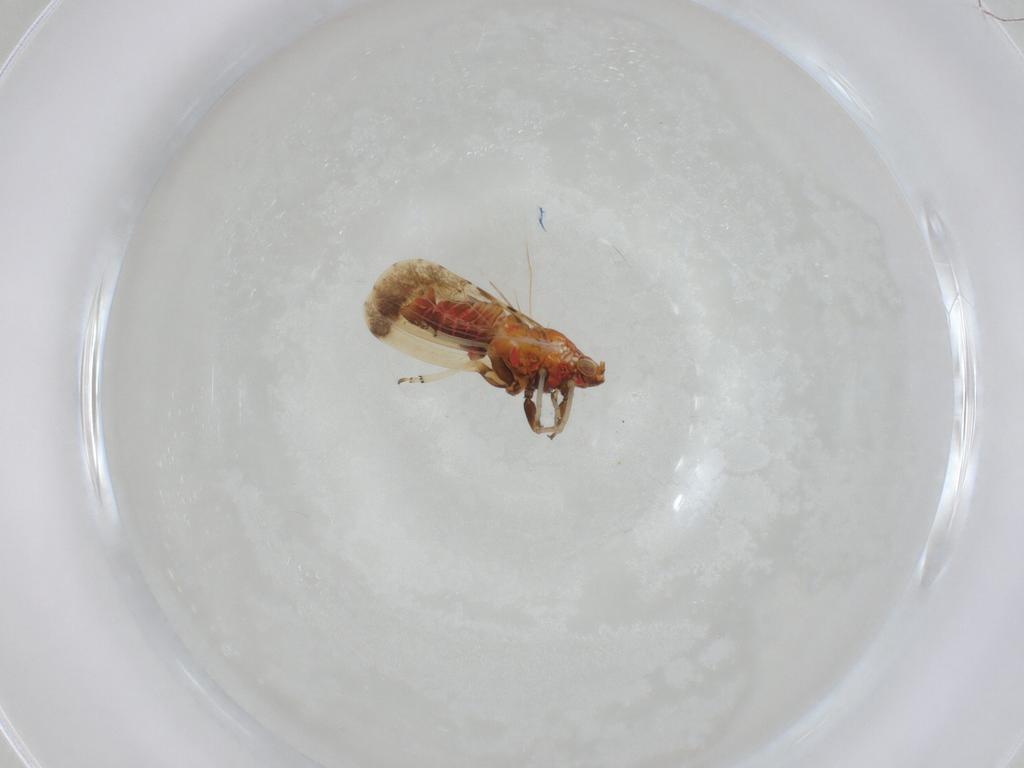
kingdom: Animalia
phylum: Arthropoda
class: Insecta
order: Hemiptera
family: Psyllidae
